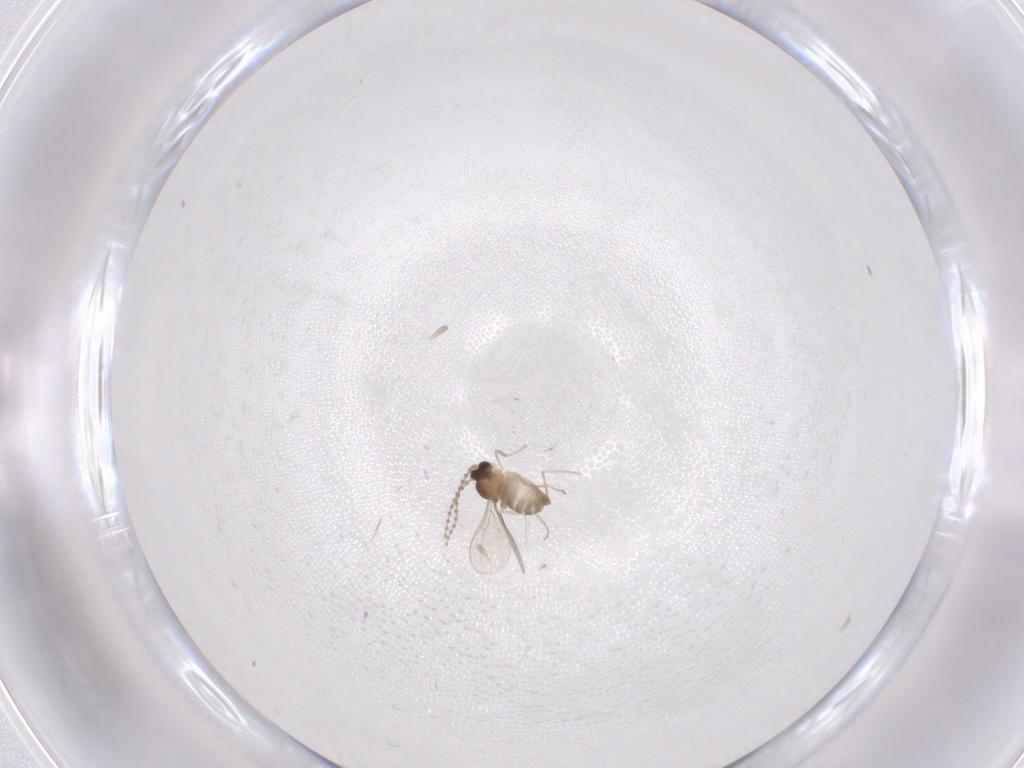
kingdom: Animalia
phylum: Arthropoda
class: Insecta
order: Diptera
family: Cecidomyiidae
